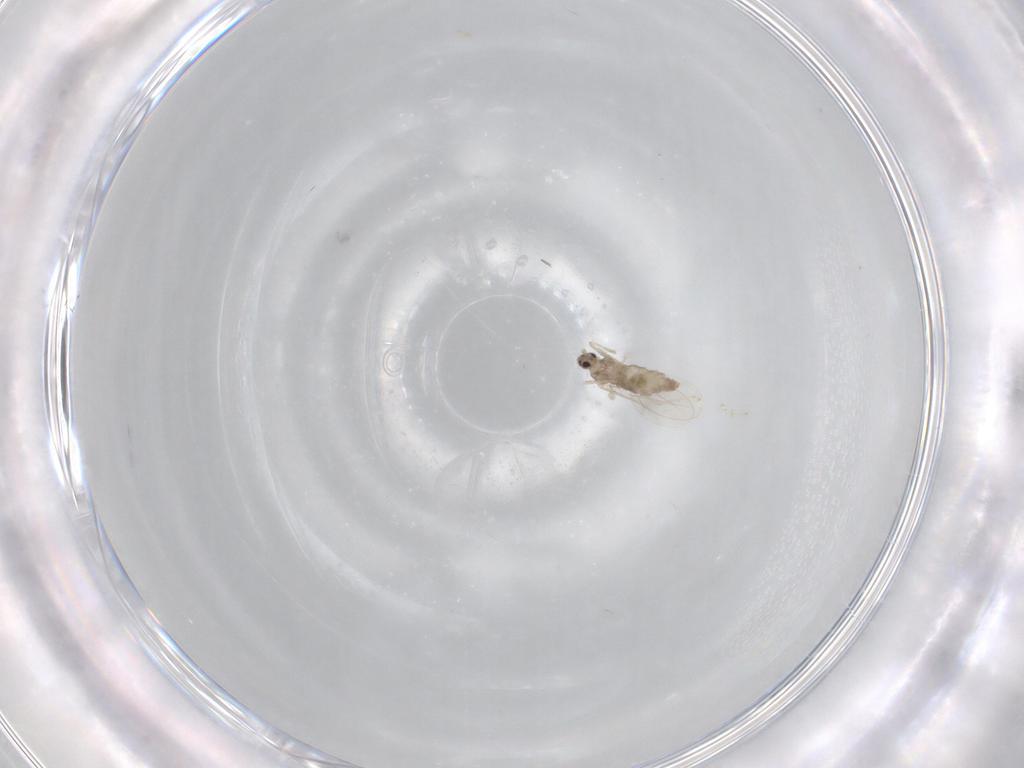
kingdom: Animalia
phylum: Arthropoda
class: Insecta
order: Diptera
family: Cecidomyiidae
